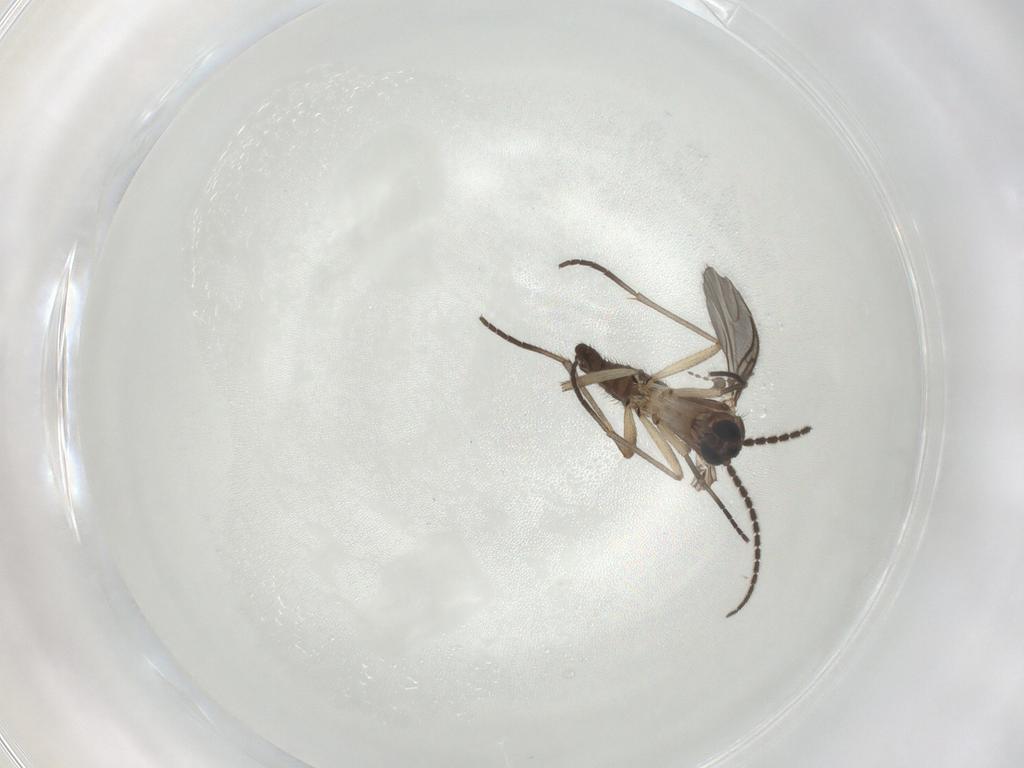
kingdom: Animalia
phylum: Arthropoda
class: Insecta
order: Diptera
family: Sciaridae
